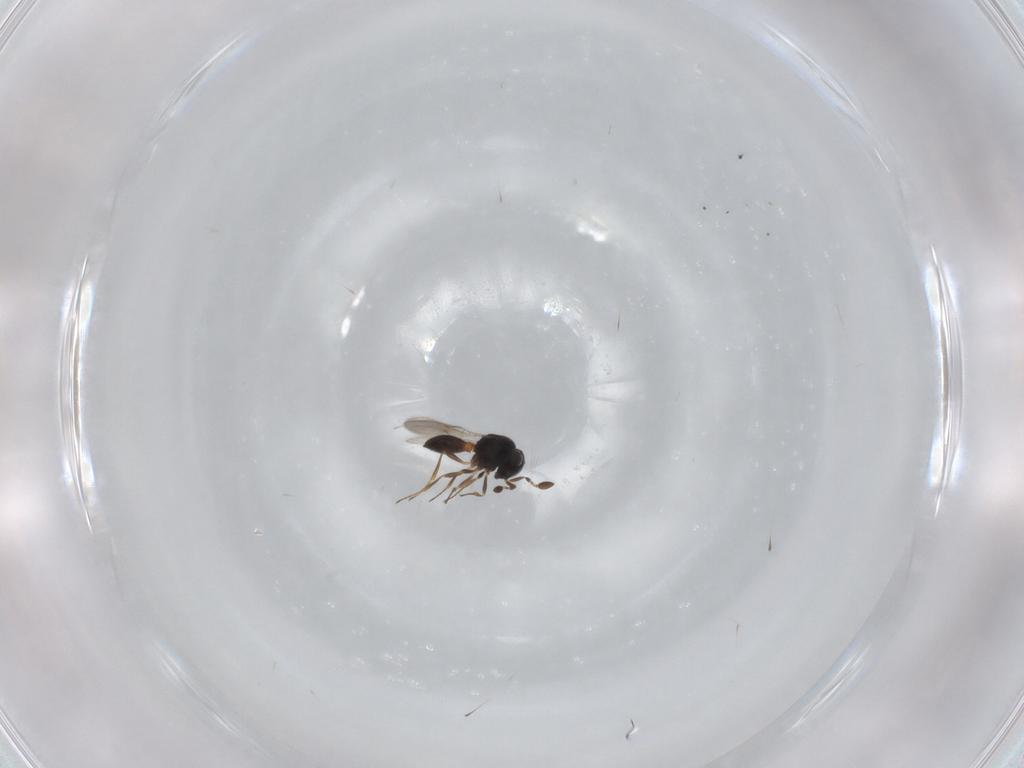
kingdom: Animalia
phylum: Arthropoda
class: Insecta
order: Hymenoptera
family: Scelionidae
